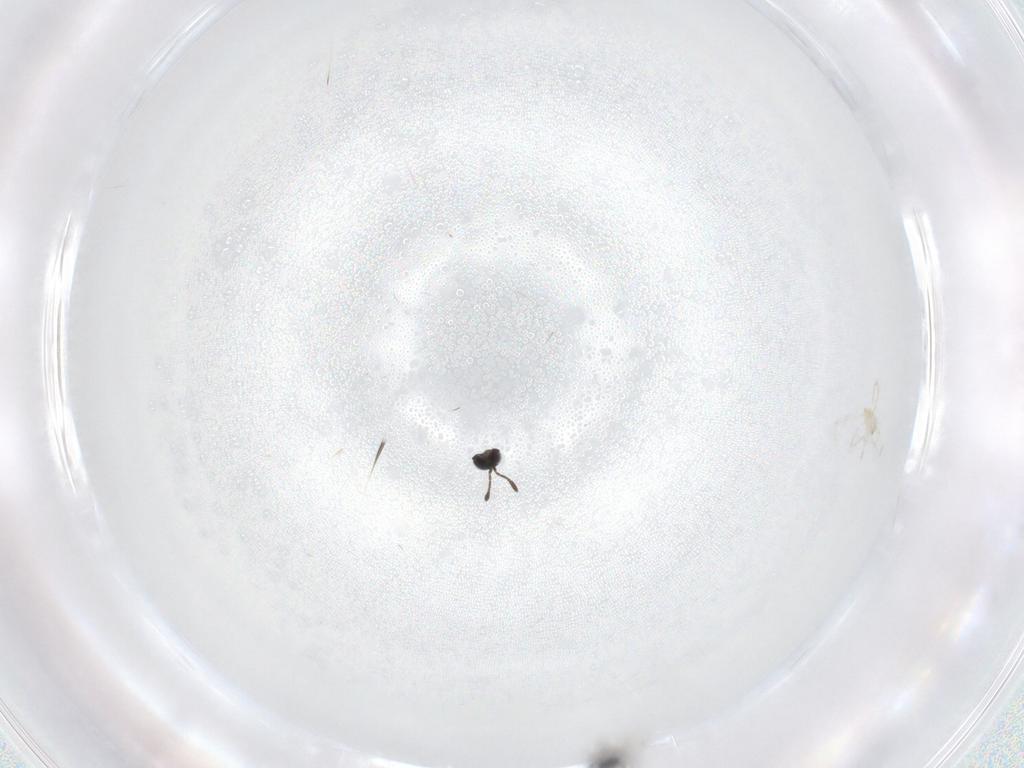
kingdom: Animalia
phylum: Arthropoda
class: Insecta
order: Hymenoptera
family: Scelionidae
